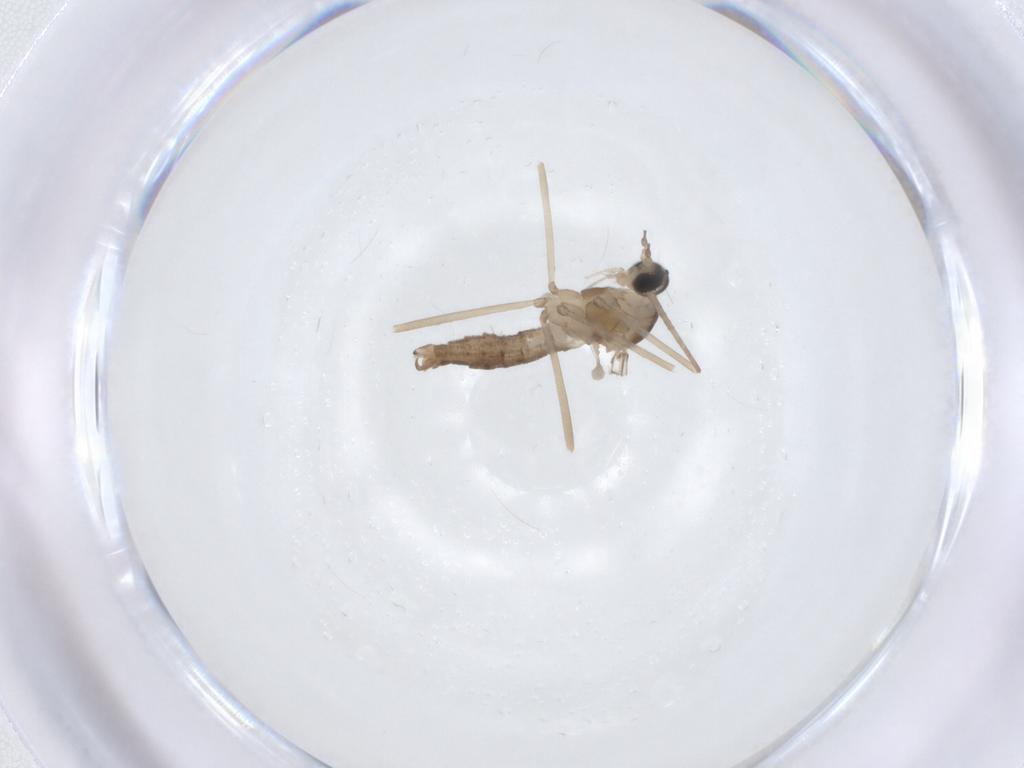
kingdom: Animalia
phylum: Arthropoda
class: Insecta
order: Diptera
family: Cecidomyiidae
